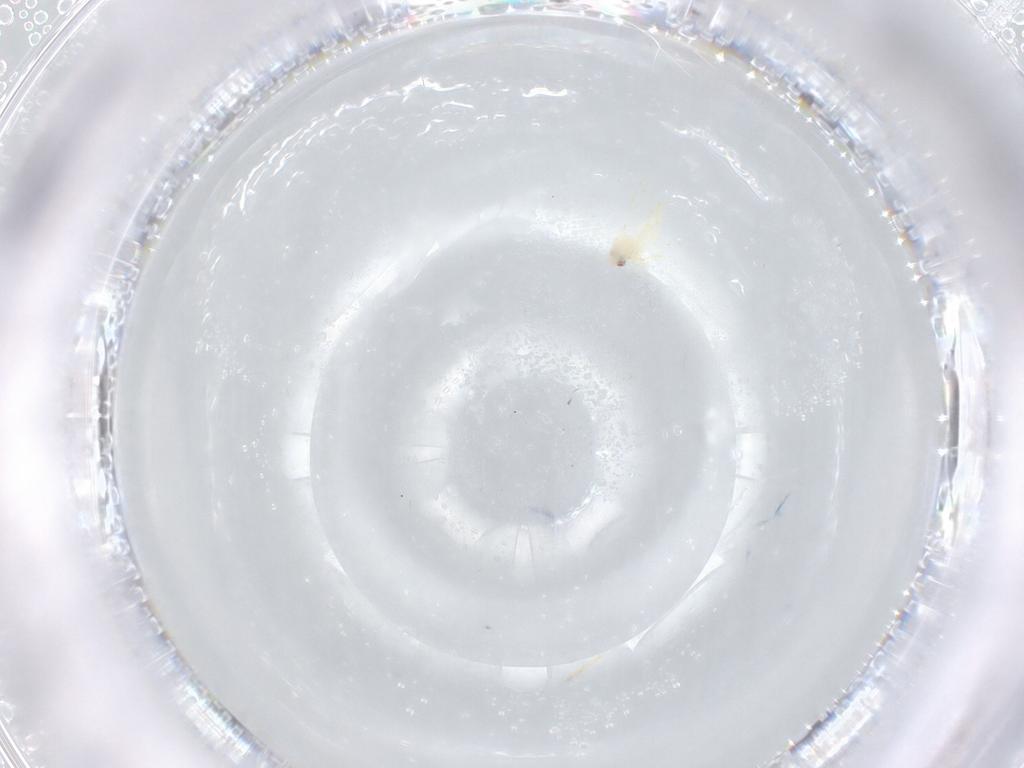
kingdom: Animalia
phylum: Arthropoda
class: Insecta
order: Hemiptera
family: Aleyrodidae
